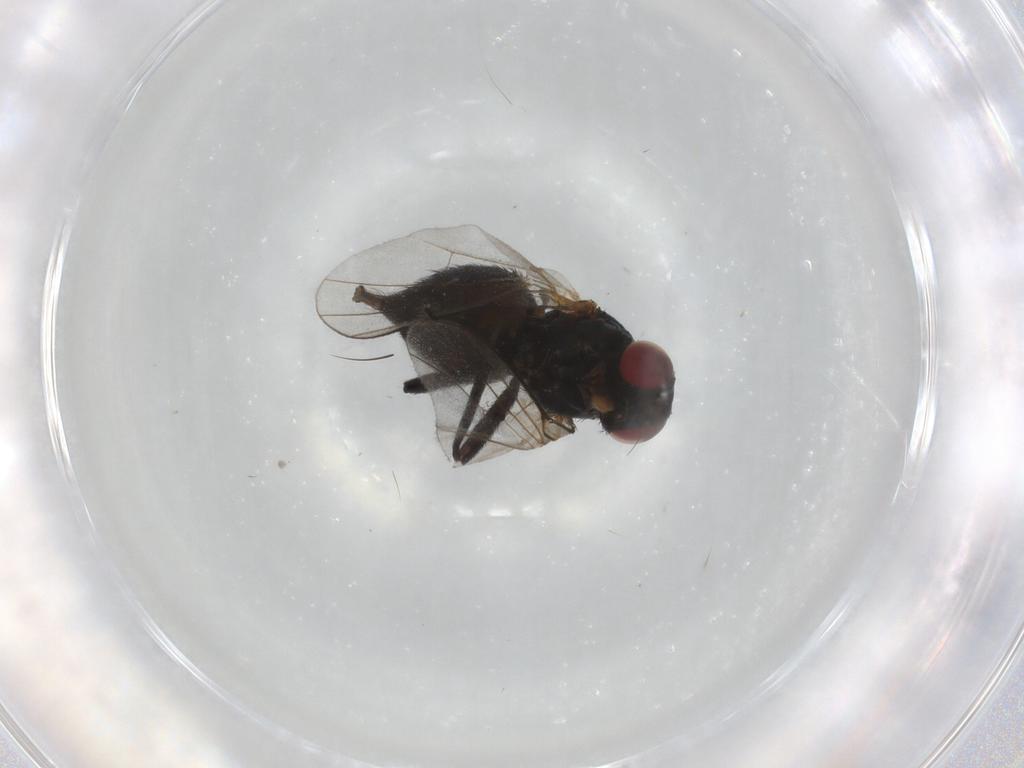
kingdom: Animalia
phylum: Arthropoda
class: Insecta
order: Diptera
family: Agromyzidae
